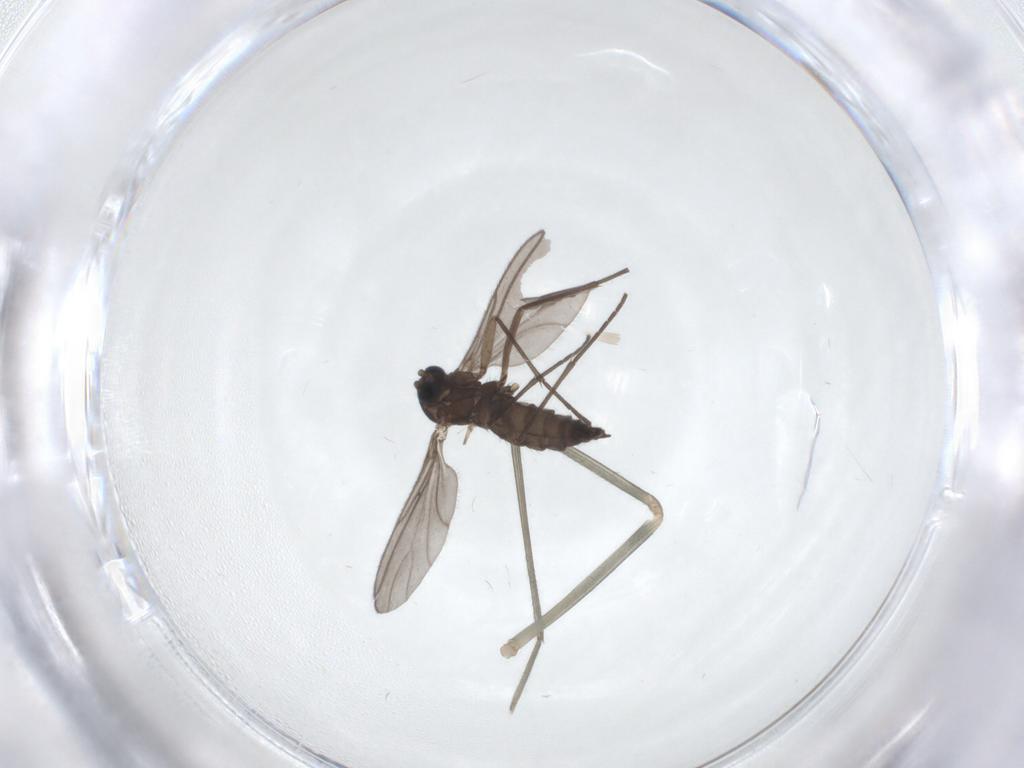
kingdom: Animalia
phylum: Arthropoda
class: Insecta
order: Diptera
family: Sciaridae
